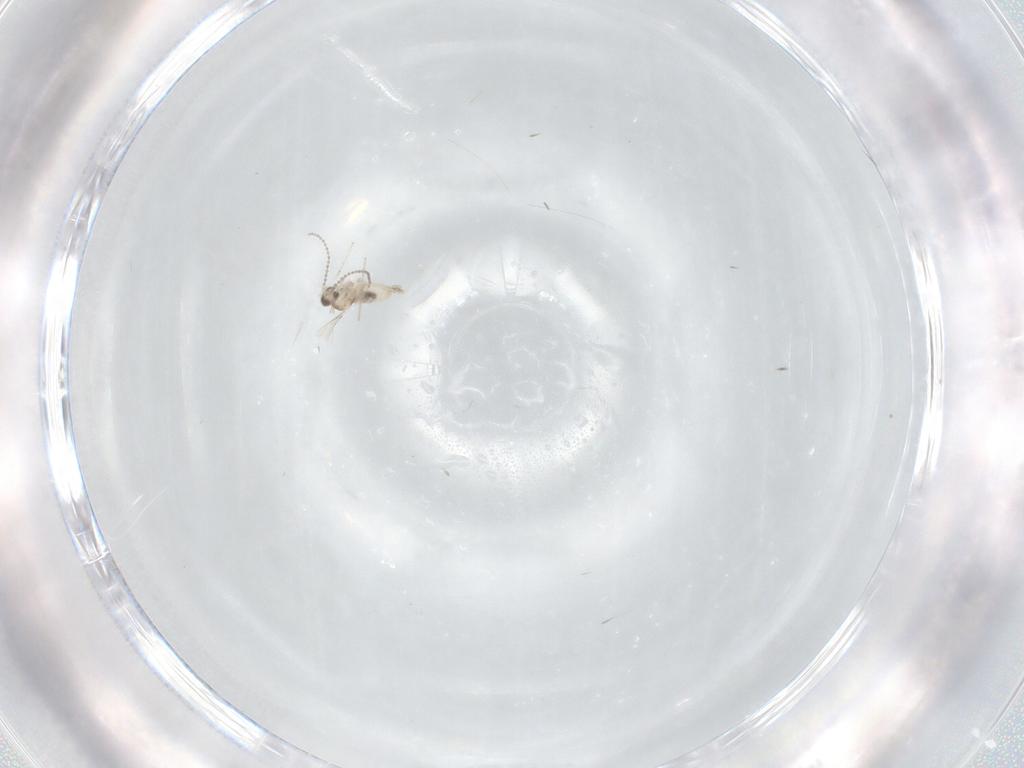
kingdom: Animalia
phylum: Arthropoda
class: Insecta
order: Diptera
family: Cecidomyiidae
